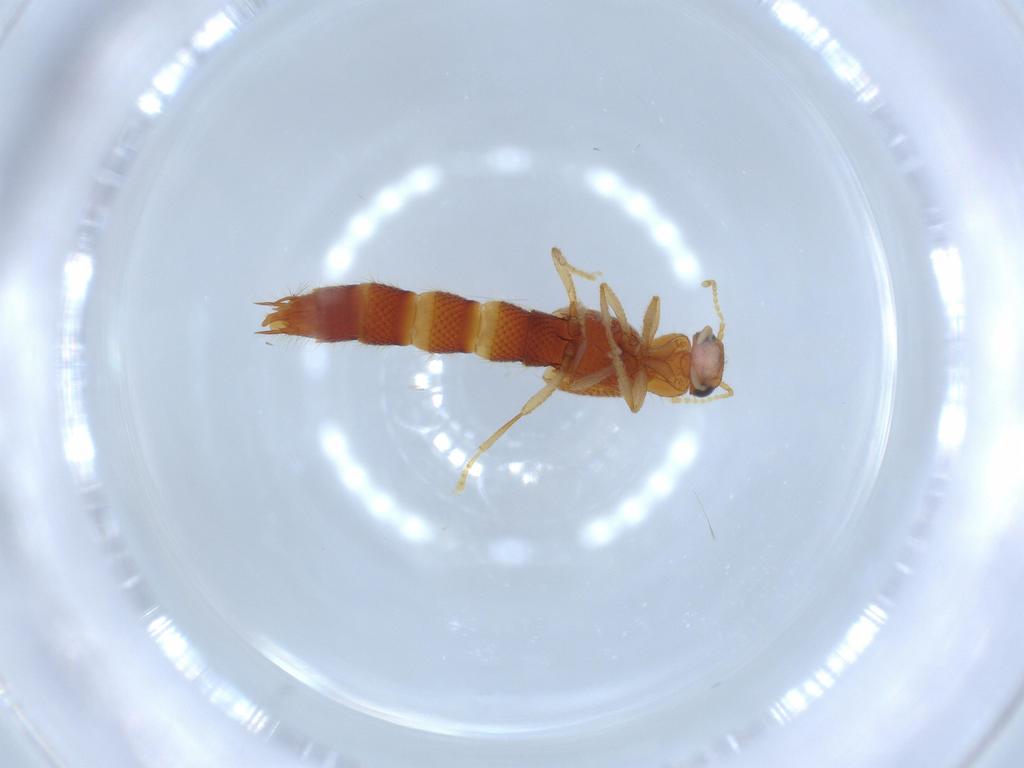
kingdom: Animalia
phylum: Arthropoda
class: Insecta
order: Coleoptera
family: Staphylinidae
